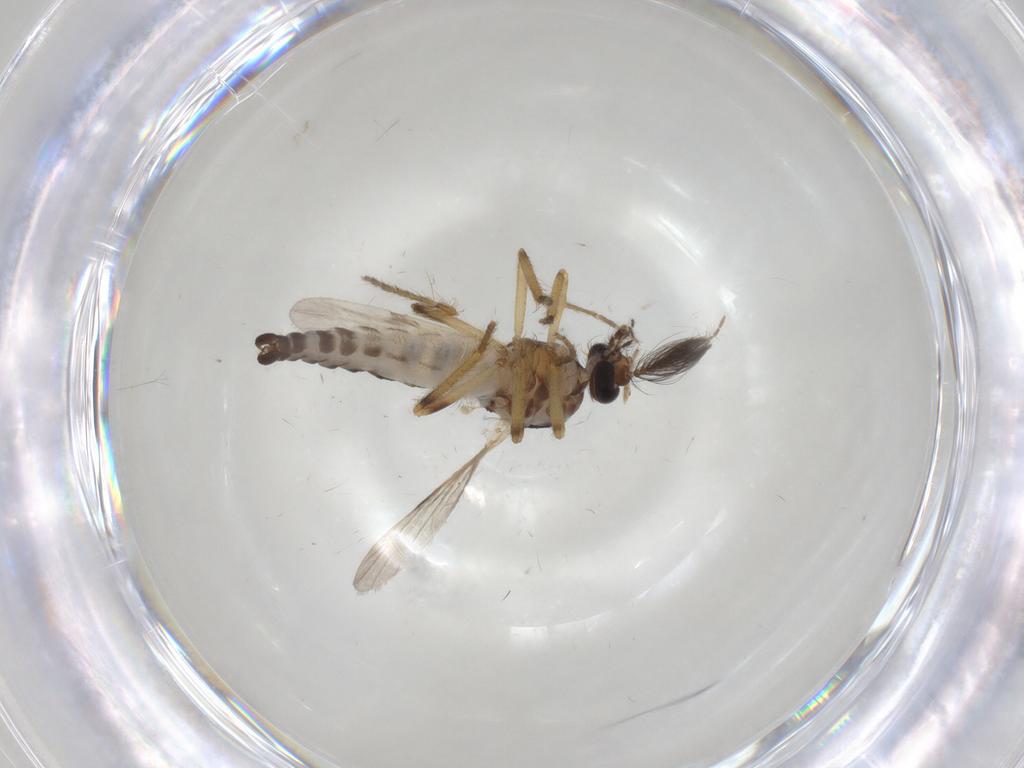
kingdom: Animalia
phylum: Arthropoda
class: Insecta
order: Diptera
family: Ceratopogonidae
